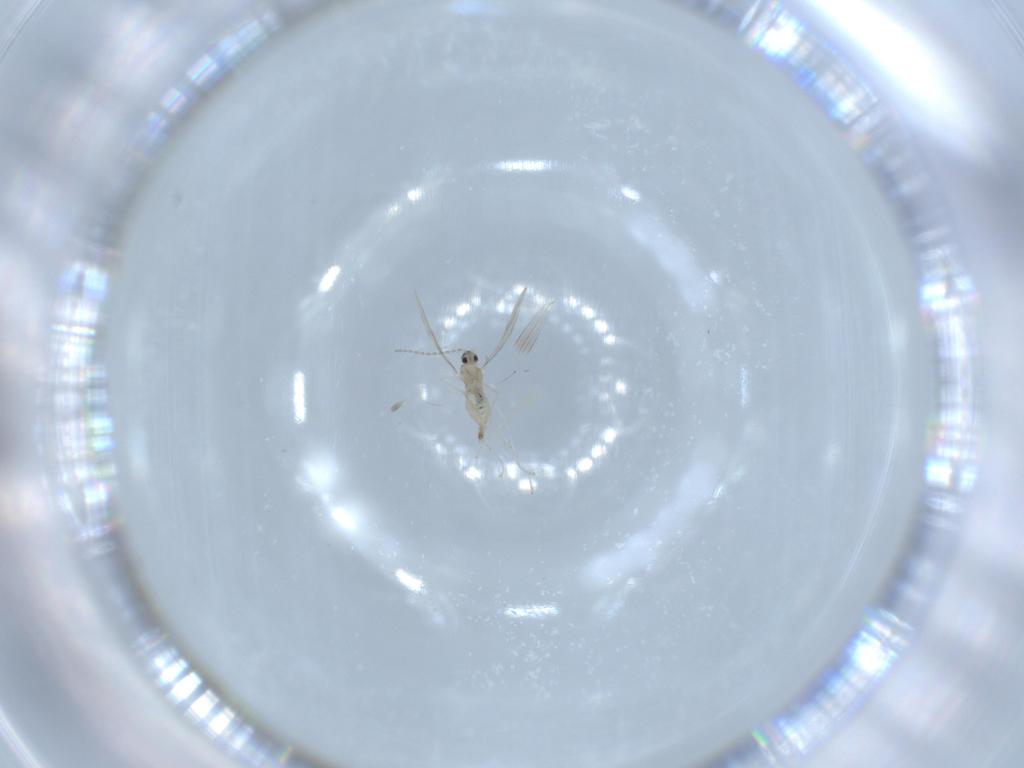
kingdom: Animalia
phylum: Arthropoda
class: Insecta
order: Diptera
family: Cecidomyiidae
